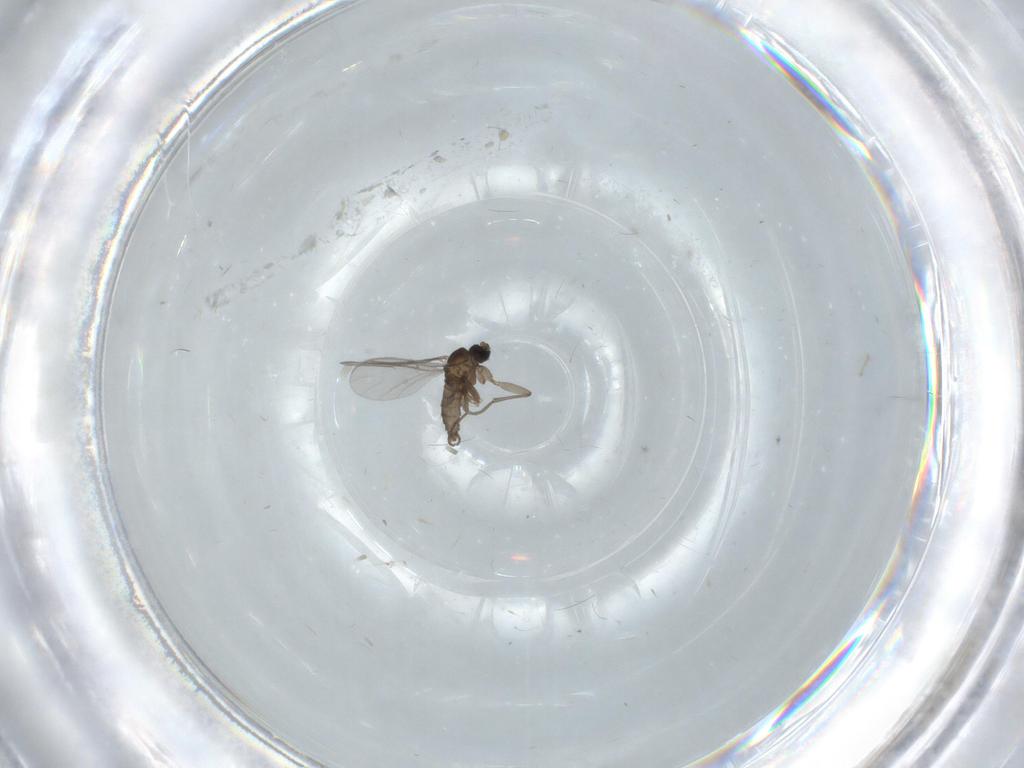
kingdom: Animalia
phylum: Arthropoda
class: Insecta
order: Diptera
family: Sciaridae
